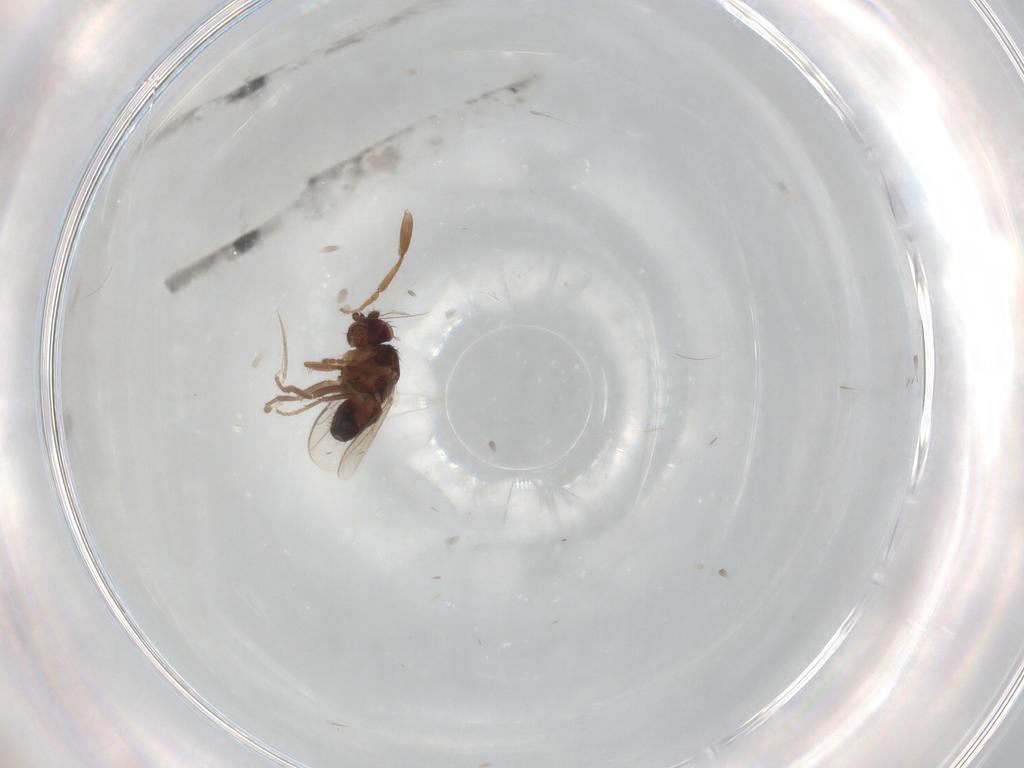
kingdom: Animalia
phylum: Arthropoda
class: Insecta
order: Diptera
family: Sphaeroceridae
